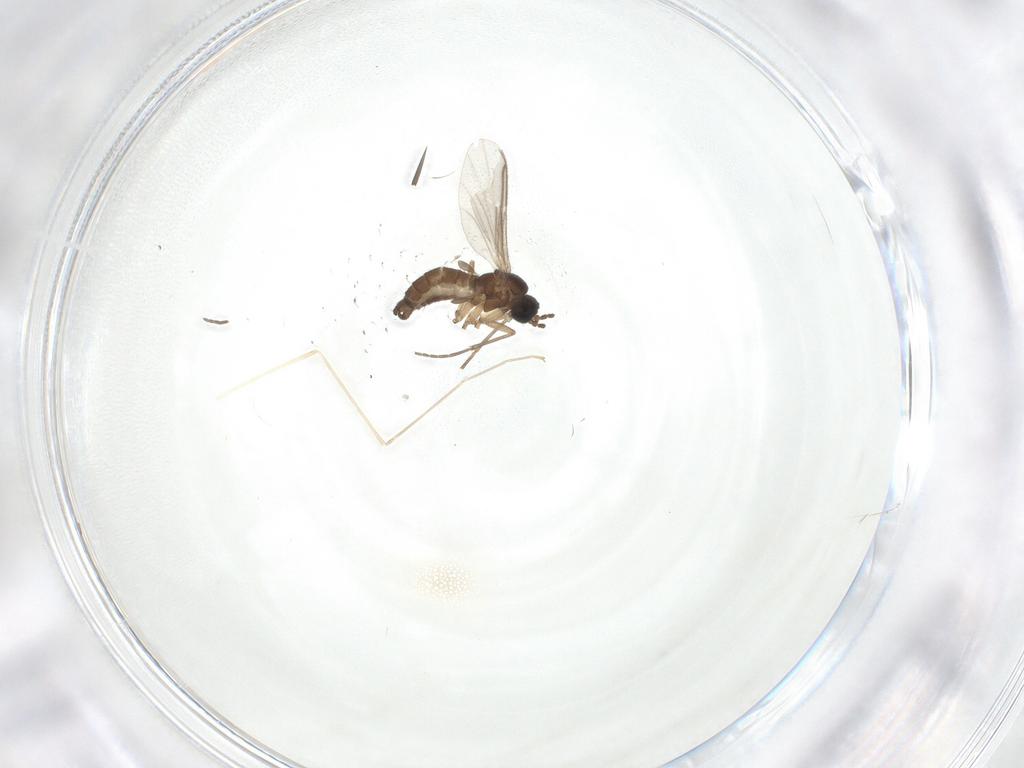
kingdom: Animalia
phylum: Arthropoda
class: Insecta
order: Diptera
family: Sciaridae
